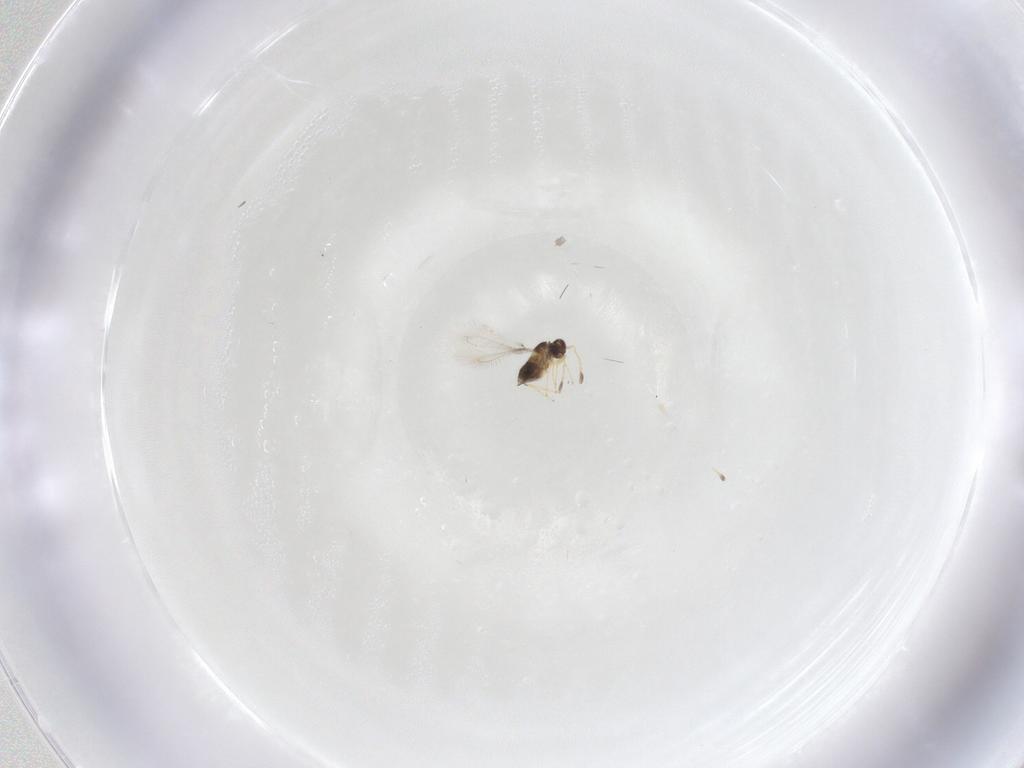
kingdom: Animalia
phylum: Arthropoda
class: Insecta
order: Hymenoptera
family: Mymaridae
